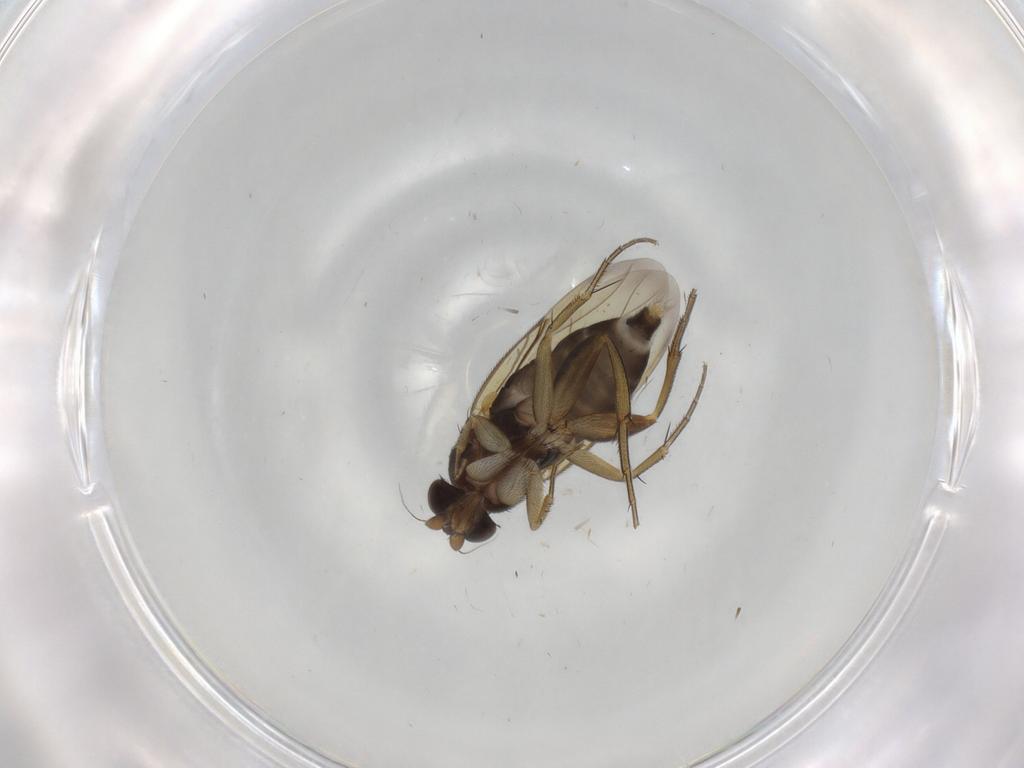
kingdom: Animalia
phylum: Arthropoda
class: Insecta
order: Diptera
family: Phoridae
